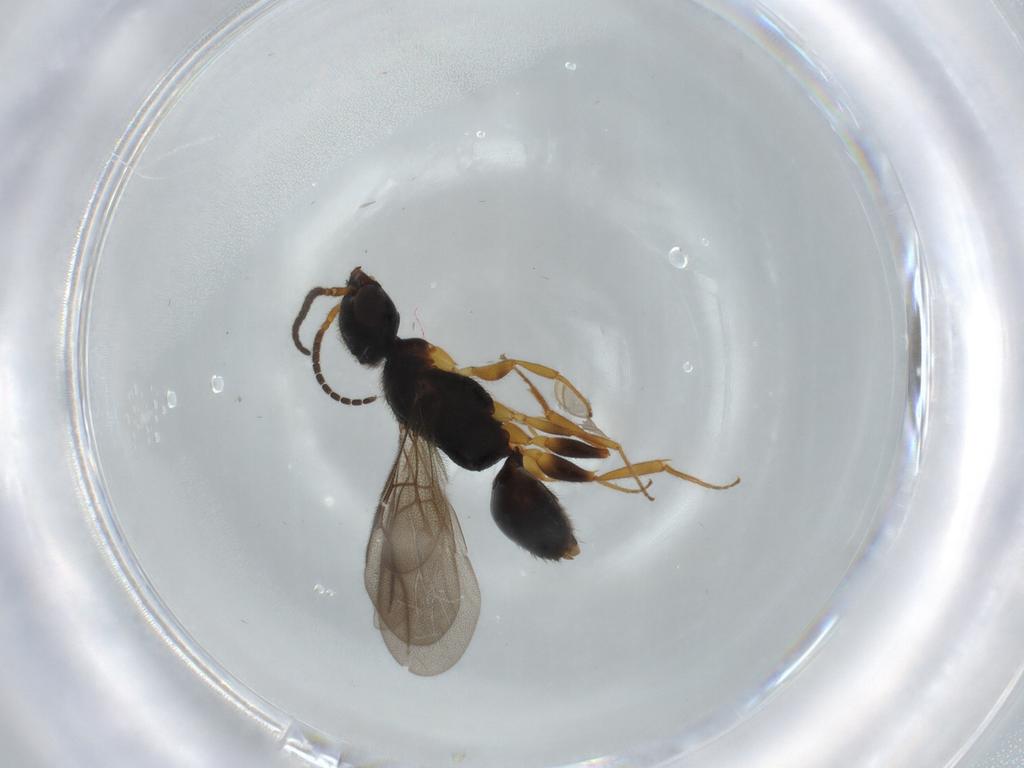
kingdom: Animalia
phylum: Arthropoda
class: Insecta
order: Hymenoptera
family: Bethylidae
